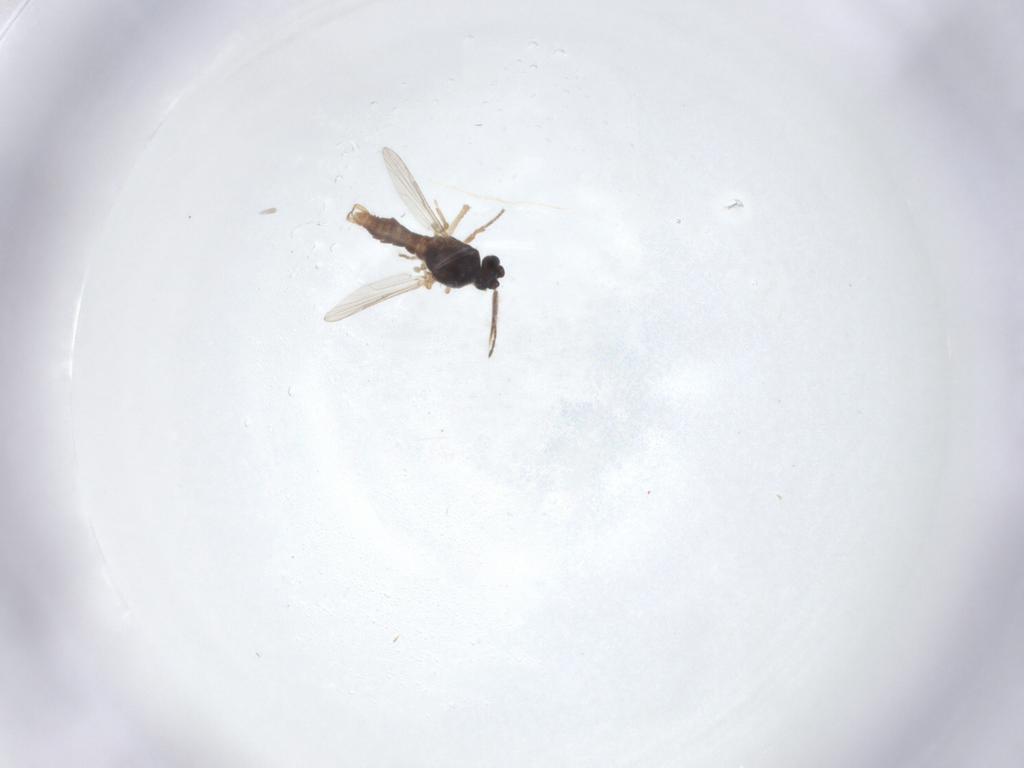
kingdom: Animalia
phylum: Arthropoda
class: Insecta
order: Diptera
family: Ceratopogonidae
